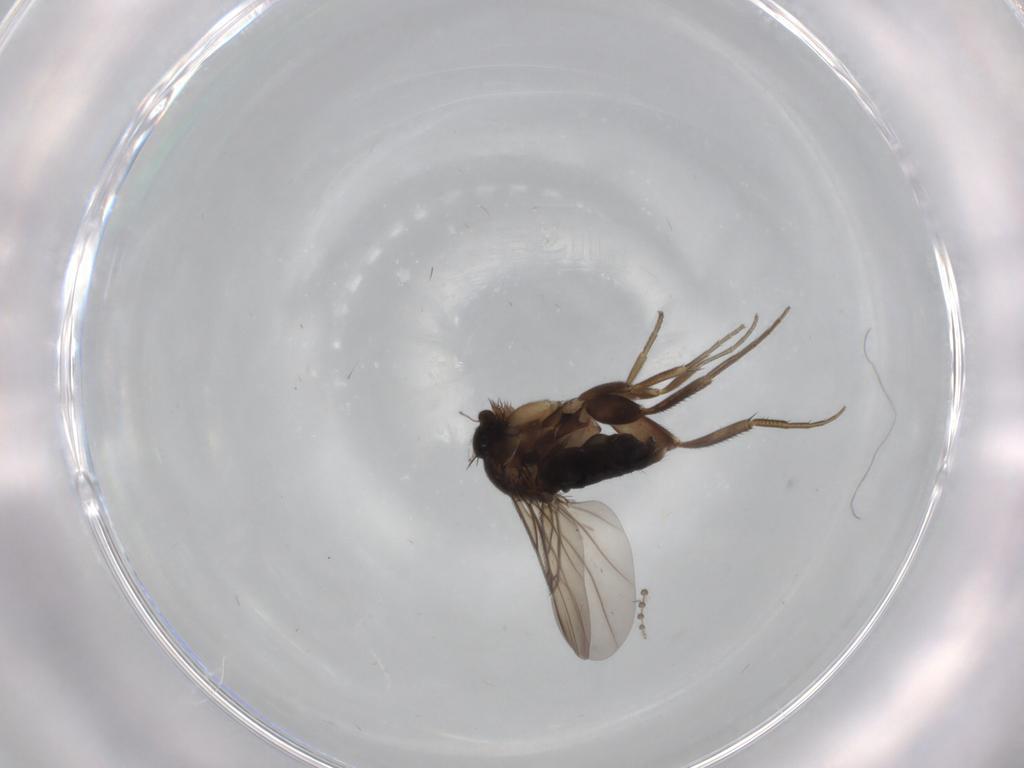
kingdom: Animalia
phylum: Arthropoda
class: Insecta
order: Diptera
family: Phoridae
